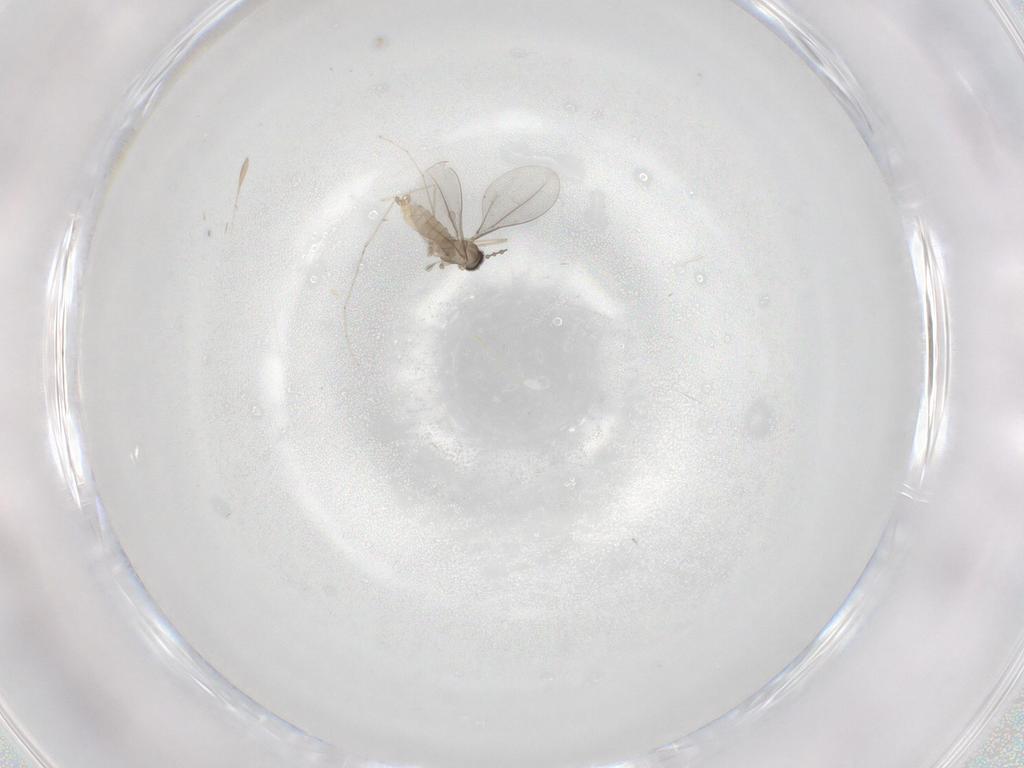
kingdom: Animalia
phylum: Arthropoda
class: Insecta
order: Diptera
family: Cecidomyiidae
